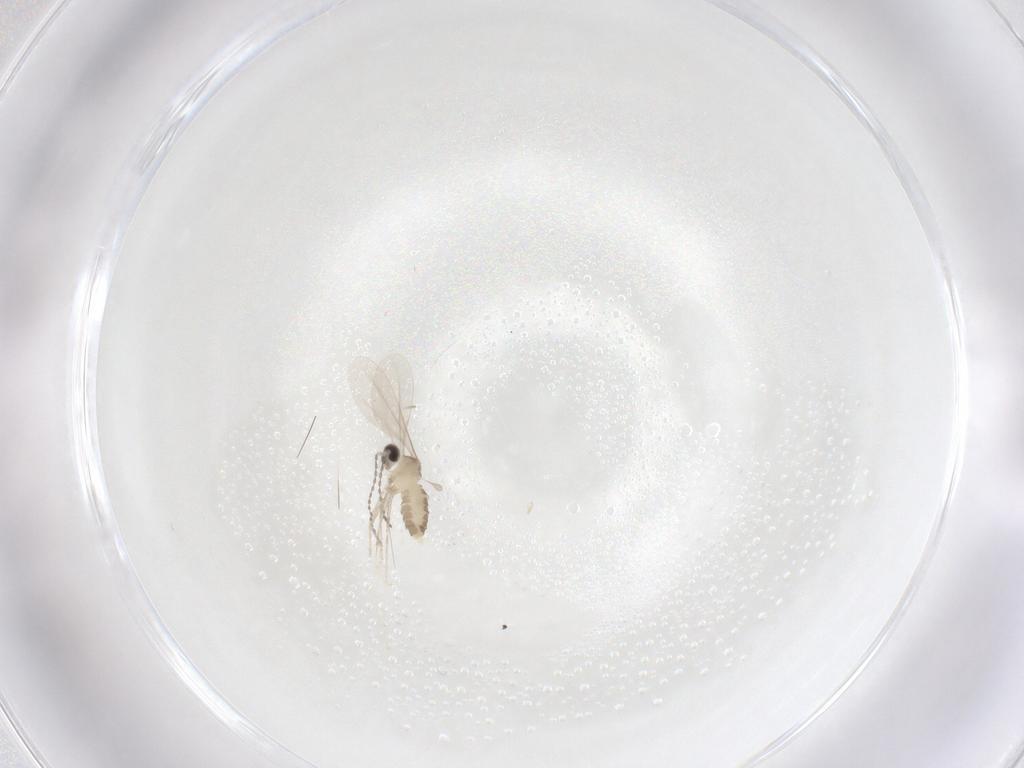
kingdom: Animalia
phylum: Arthropoda
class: Insecta
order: Diptera
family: Cecidomyiidae
